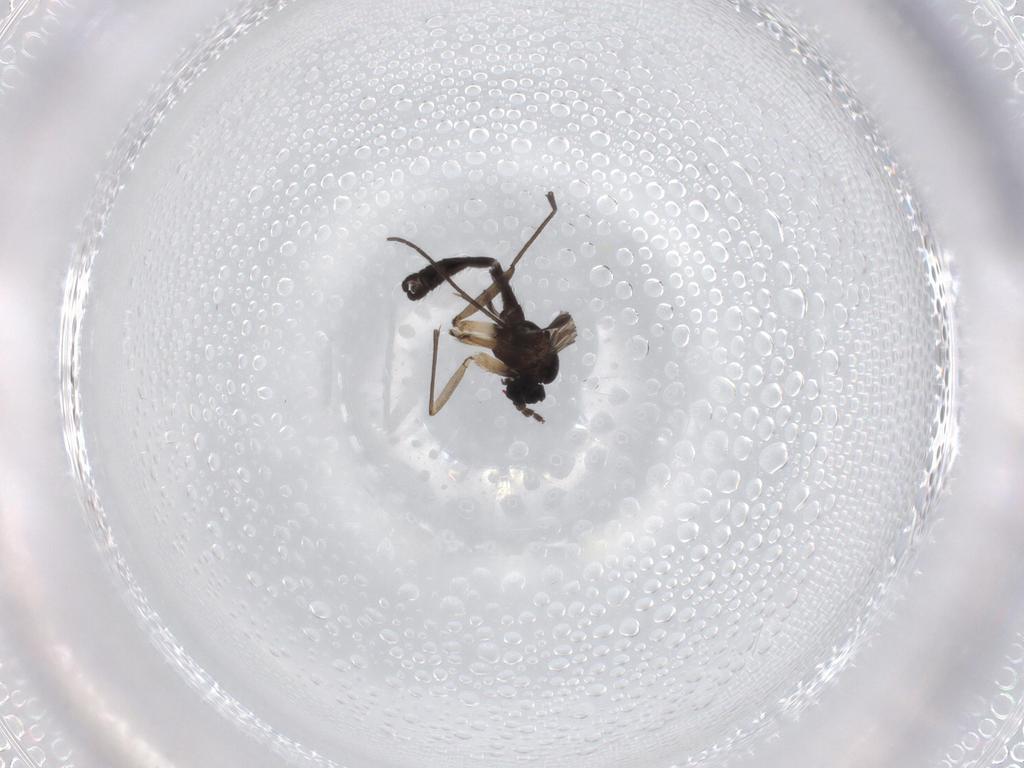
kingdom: Animalia
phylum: Arthropoda
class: Insecta
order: Diptera
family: Sciaridae
